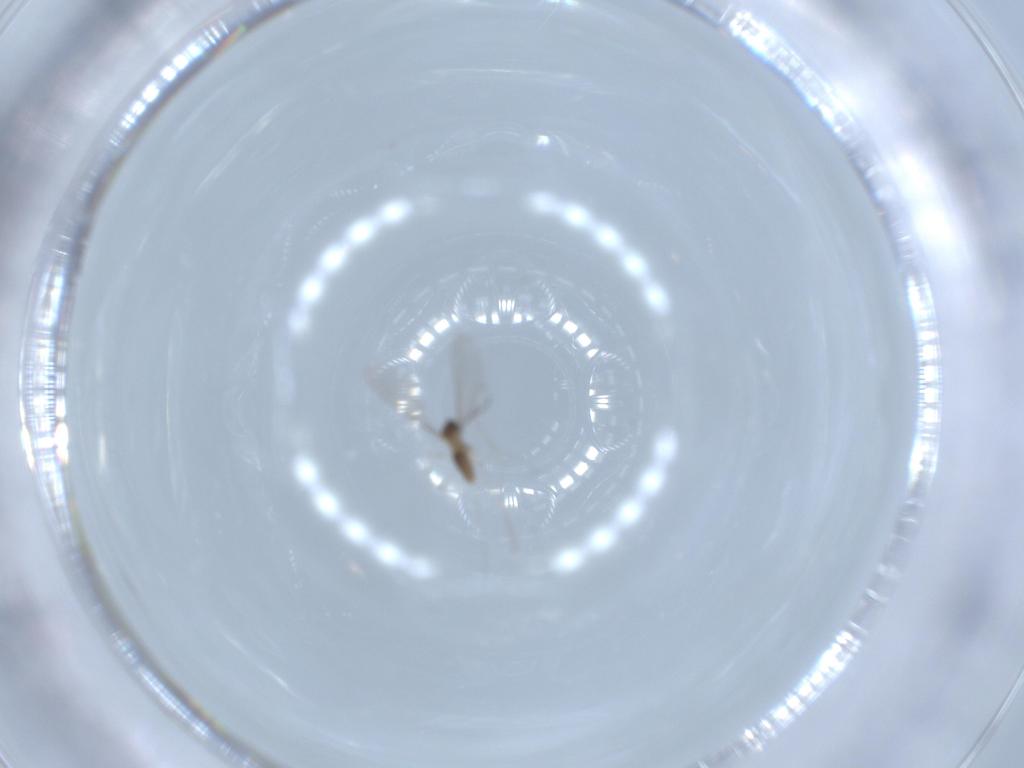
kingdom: Animalia
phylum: Arthropoda
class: Insecta
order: Diptera
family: Cecidomyiidae
